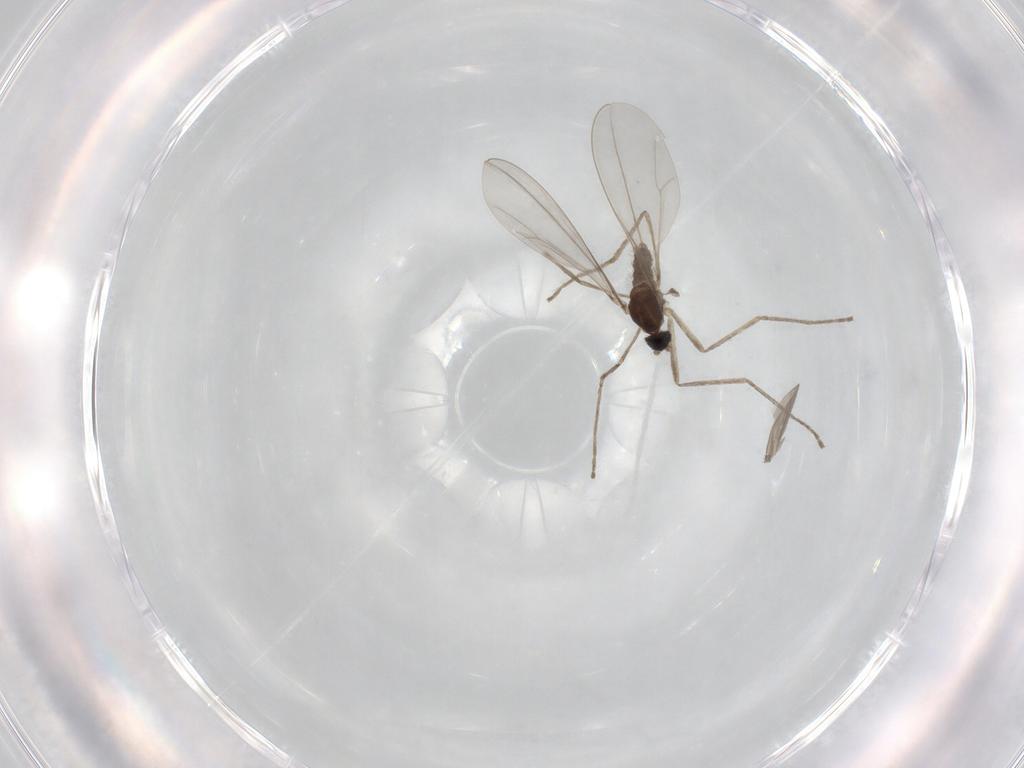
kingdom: Animalia
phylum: Arthropoda
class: Insecta
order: Diptera
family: Cecidomyiidae
